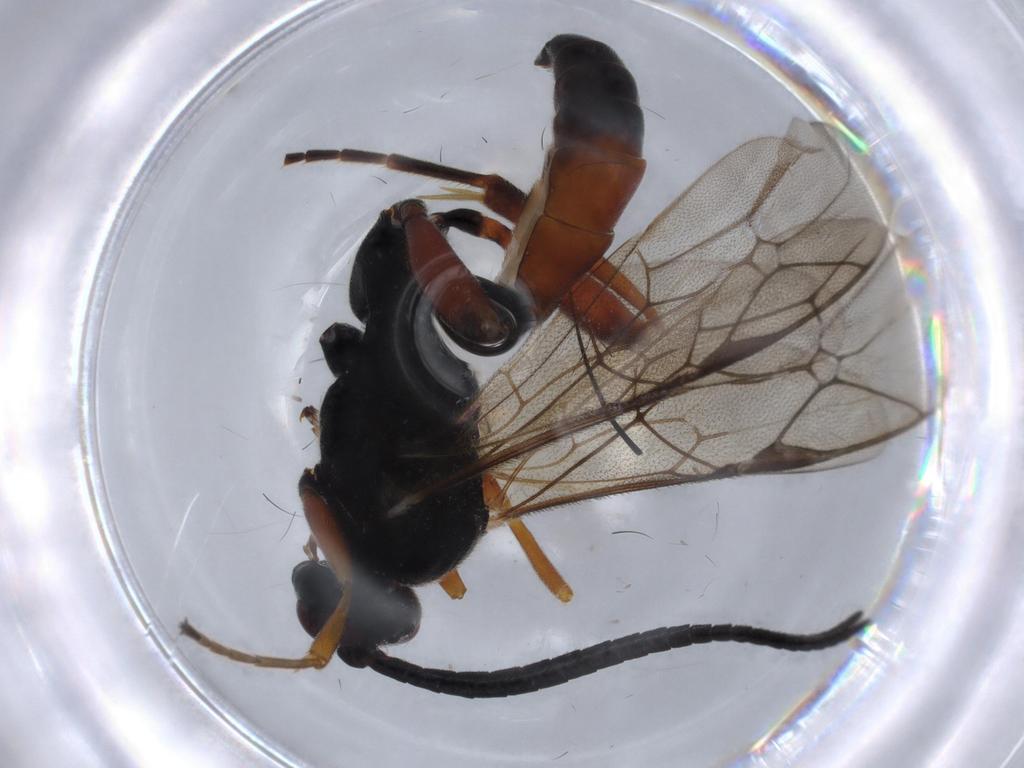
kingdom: Animalia
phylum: Arthropoda
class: Insecta
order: Hymenoptera
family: Ichneumonidae
